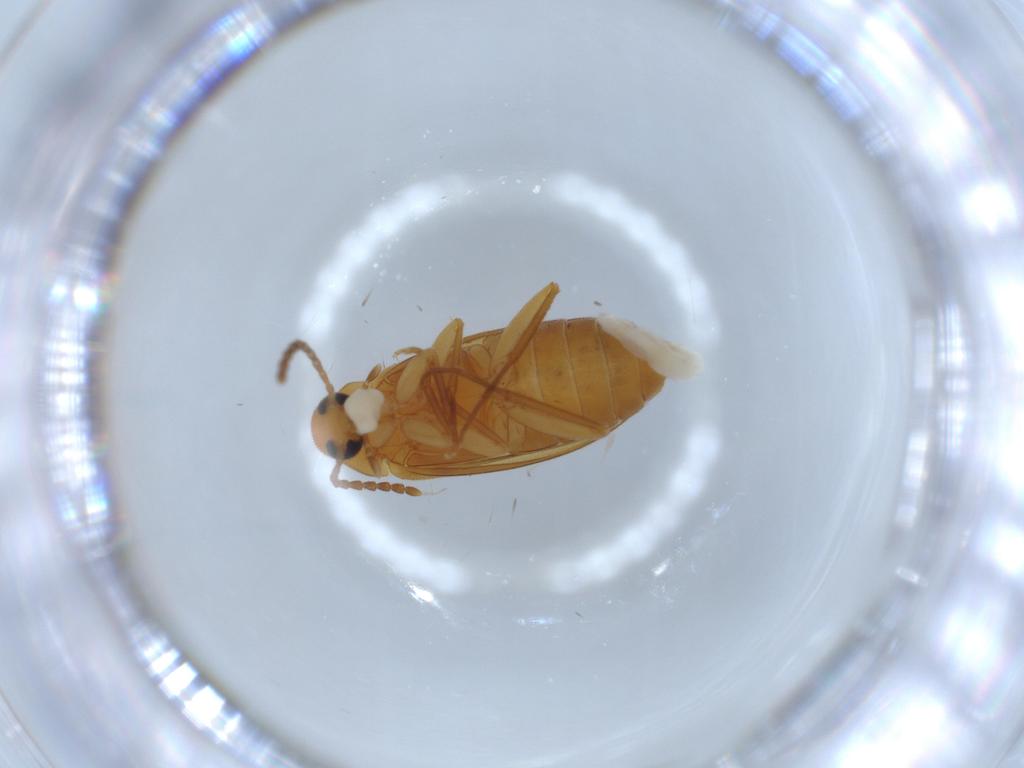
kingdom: Animalia
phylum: Arthropoda
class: Insecta
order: Coleoptera
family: Scraptiidae
